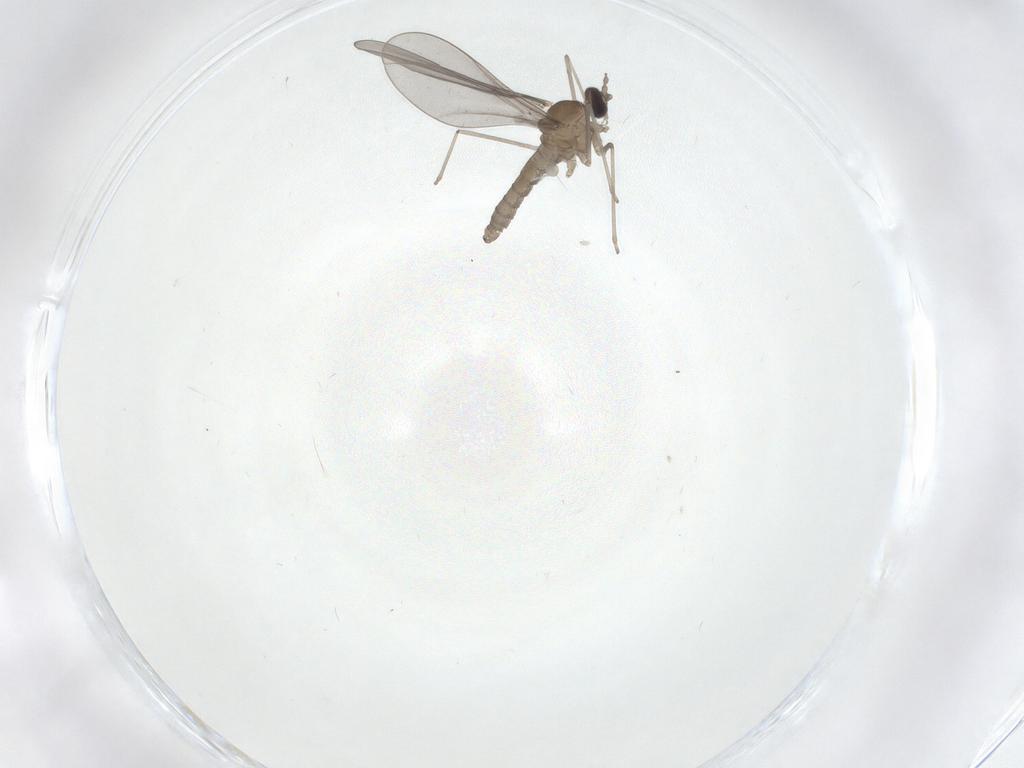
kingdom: Animalia
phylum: Arthropoda
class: Insecta
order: Diptera
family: Cecidomyiidae
